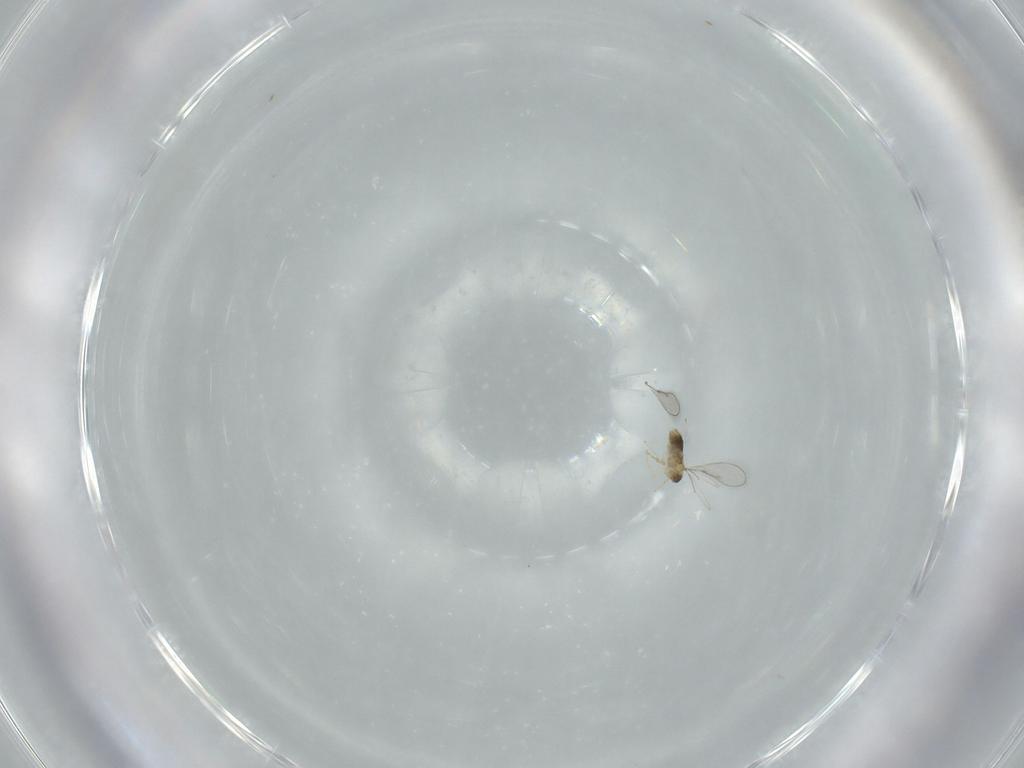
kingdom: Animalia
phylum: Arthropoda
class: Insecta
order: Hymenoptera
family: Aphelinidae
